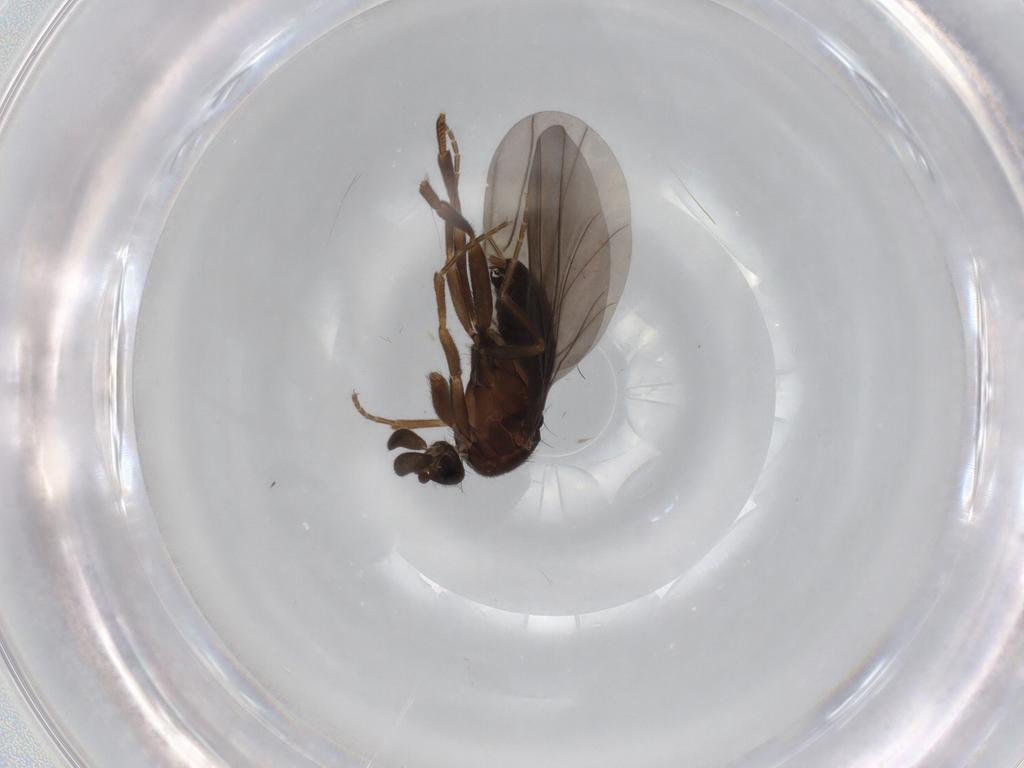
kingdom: Animalia
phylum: Arthropoda
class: Insecta
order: Diptera
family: Phoridae
